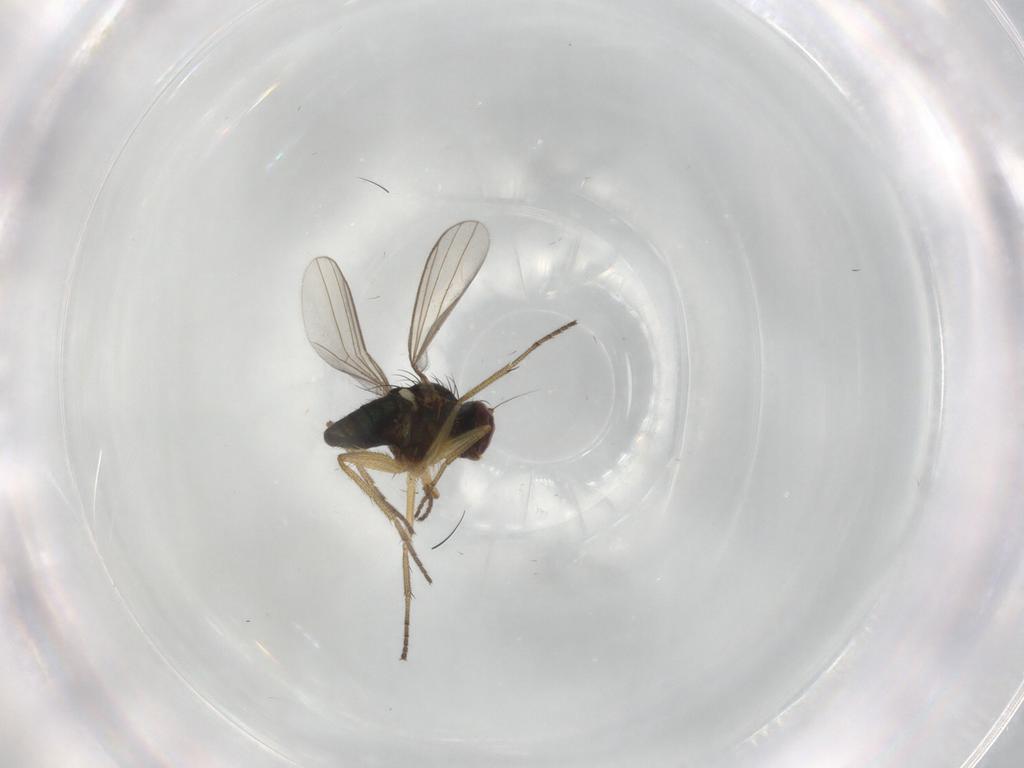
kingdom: Animalia
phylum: Arthropoda
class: Insecta
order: Diptera
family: Dolichopodidae
